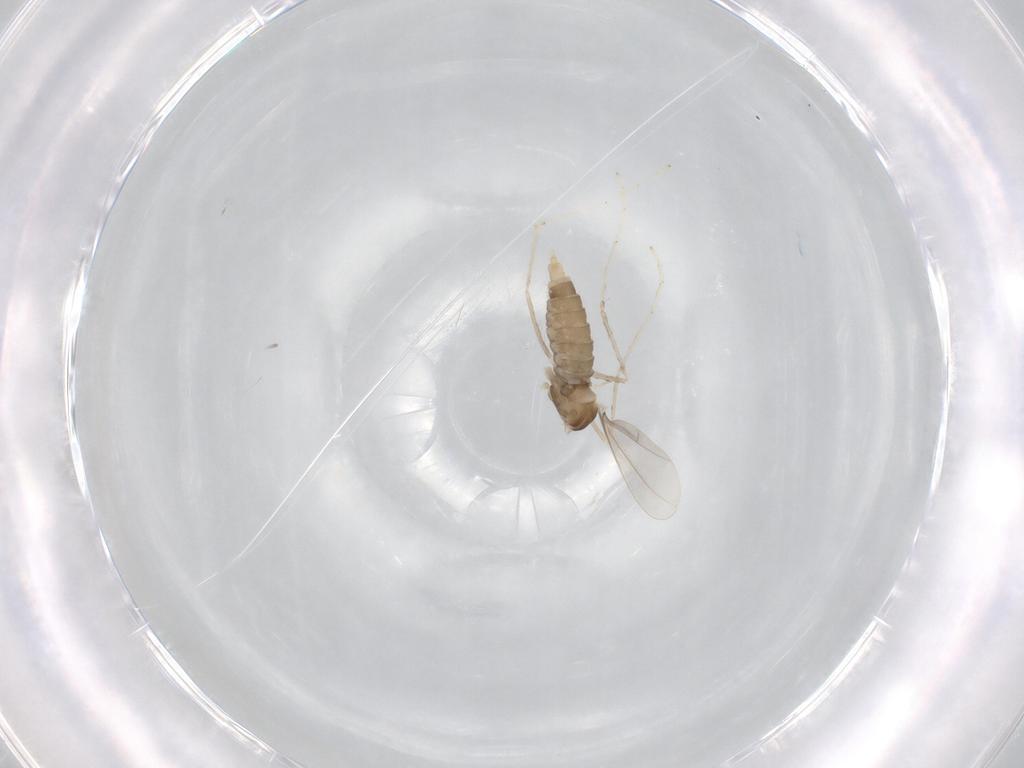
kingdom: Animalia
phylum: Arthropoda
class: Insecta
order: Diptera
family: Cecidomyiidae
